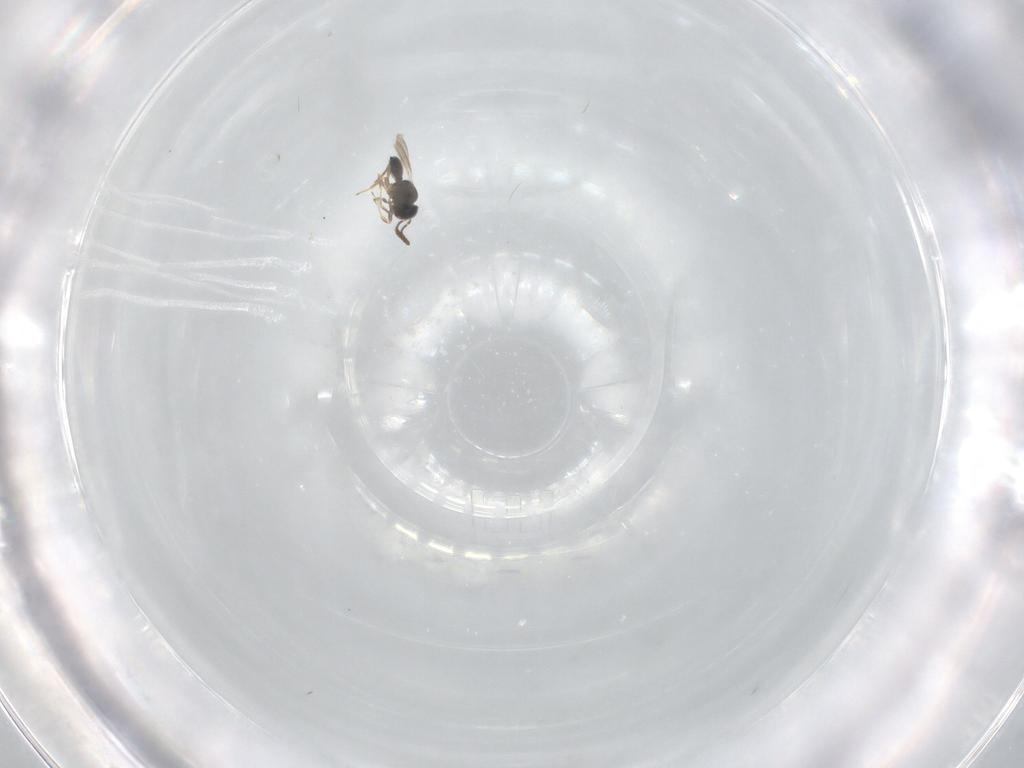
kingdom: Animalia
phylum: Arthropoda
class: Insecta
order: Hymenoptera
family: Scelionidae
